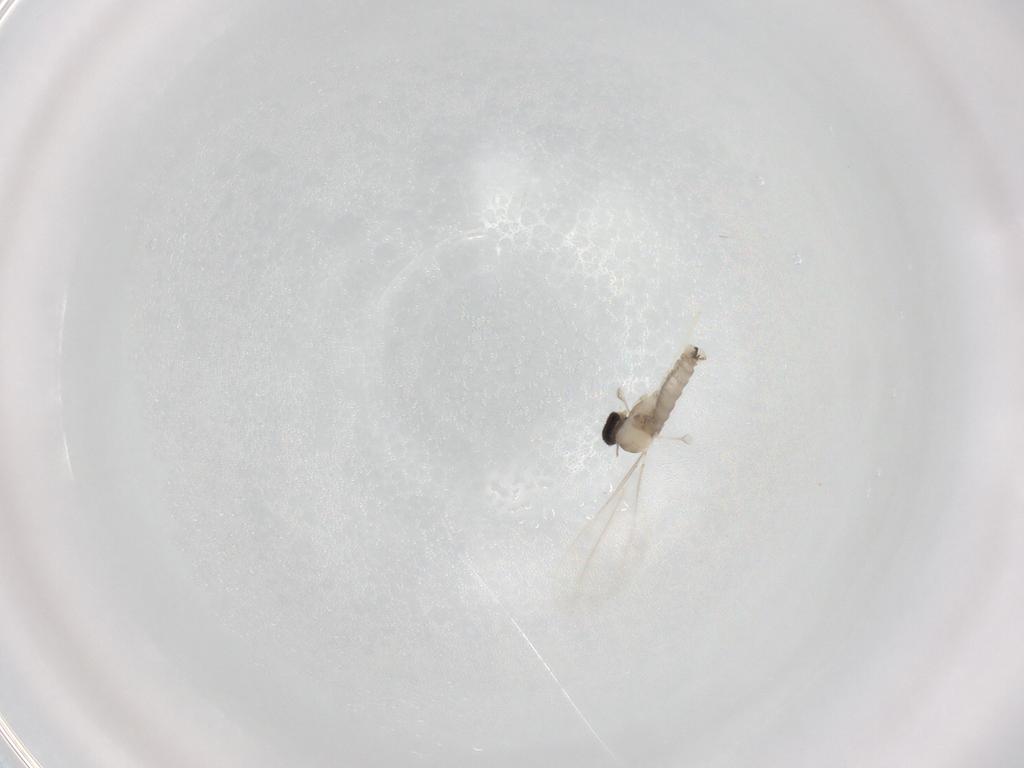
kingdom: Animalia
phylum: Arthropoda
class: Insecta
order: Diptera
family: Cecidomyiidae
